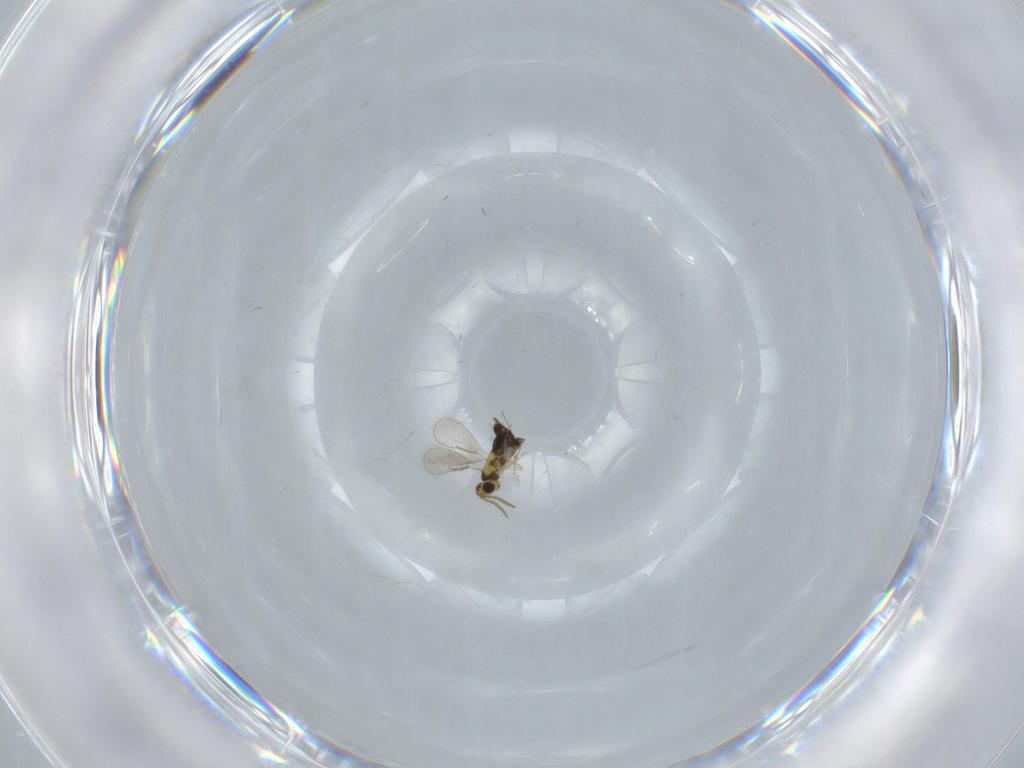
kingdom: Animalia
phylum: Arthropoda
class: Insecta
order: Hymenoptera
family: Aphelinidae
